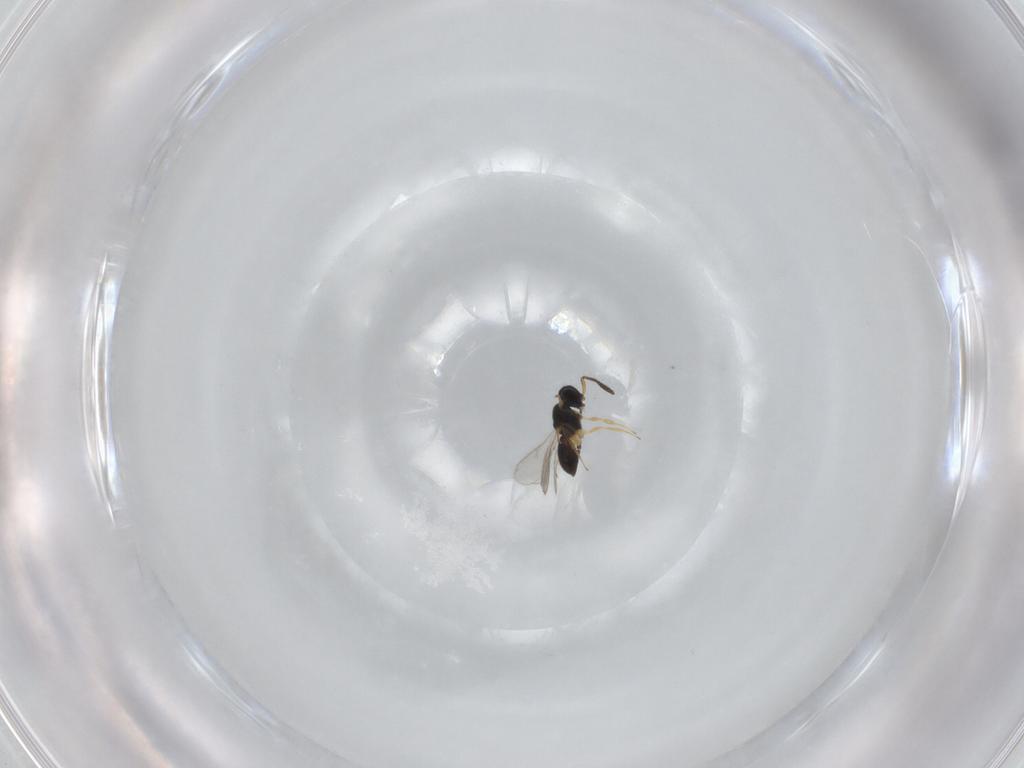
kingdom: Animalia
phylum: Arthropoda
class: Insecta
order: Hymenoptera
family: Scelionidae
